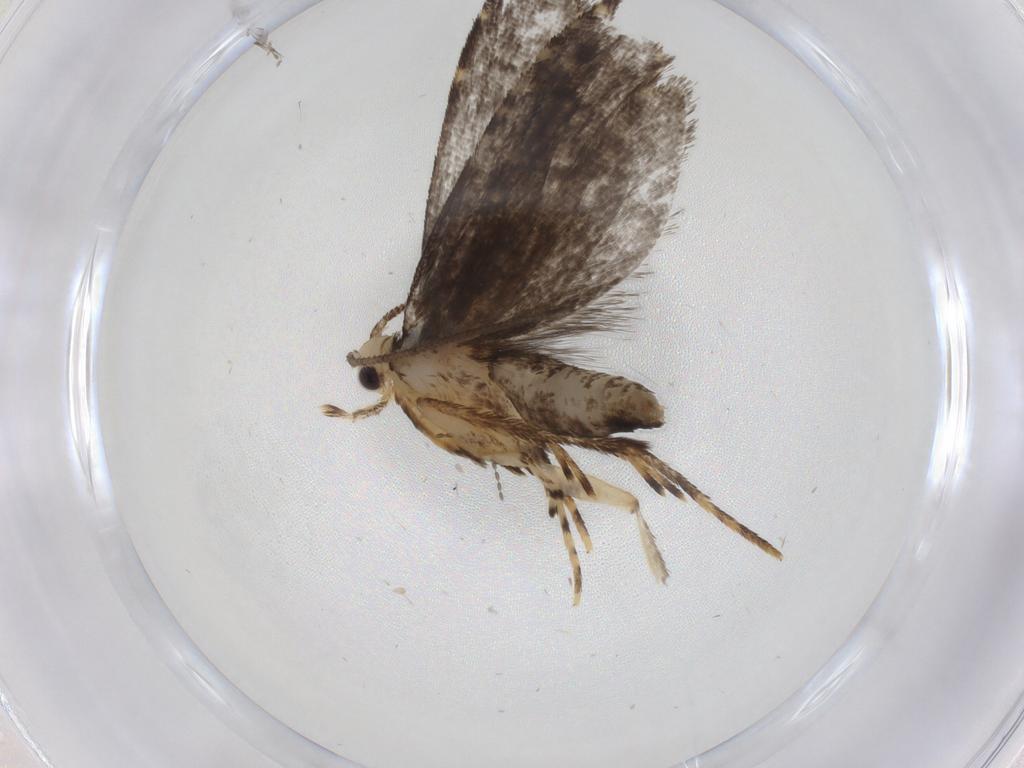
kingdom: Animalia
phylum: Arthropoda
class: Insecta
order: Lepidoptera
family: Tineidae
